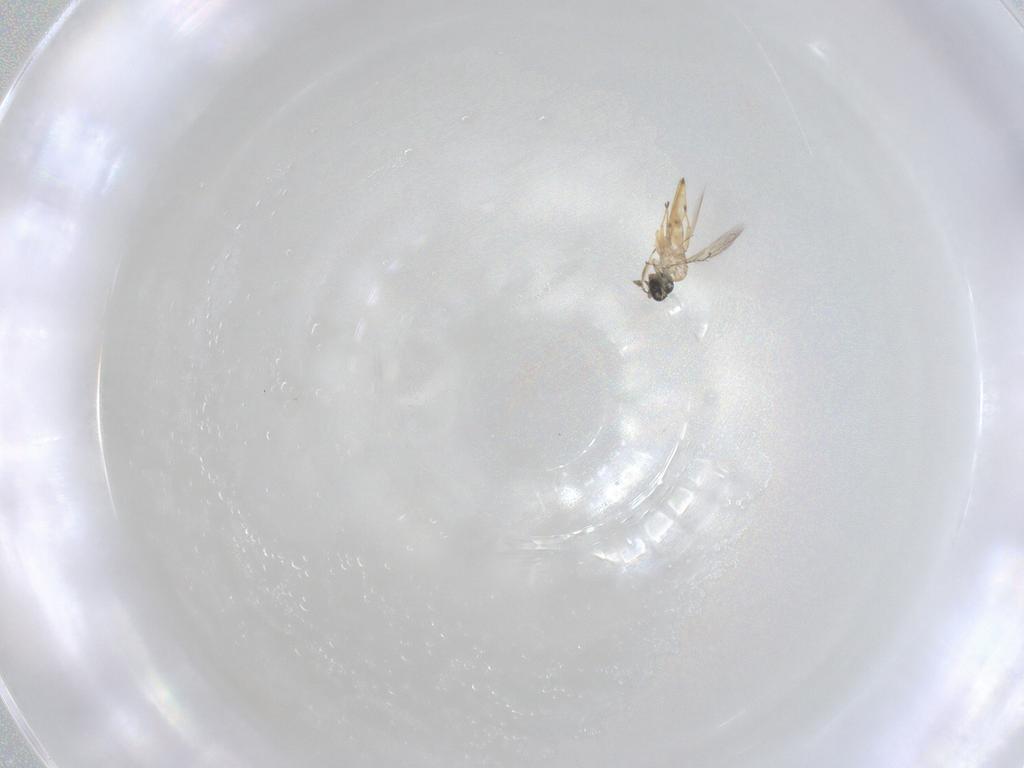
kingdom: Animalia
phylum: Arthropoda
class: Insecta
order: Hymenoptera
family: Trichogrammatidae
